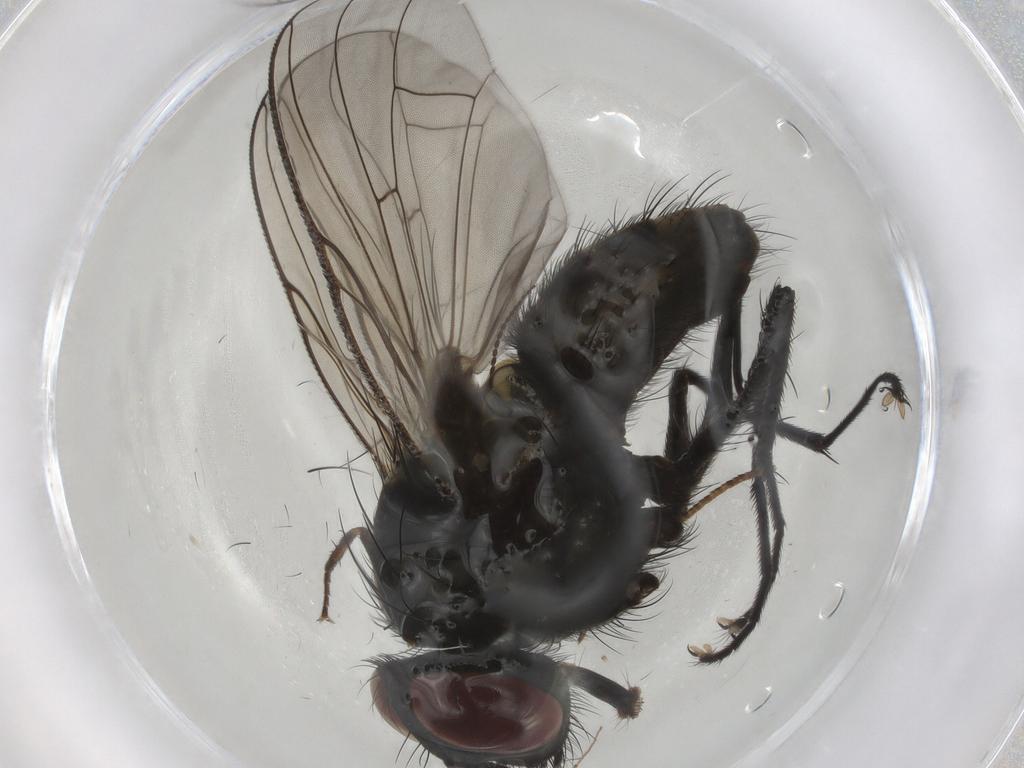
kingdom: Animalia
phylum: Arthropoda
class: Insecta
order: Diptera
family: Muscidae
